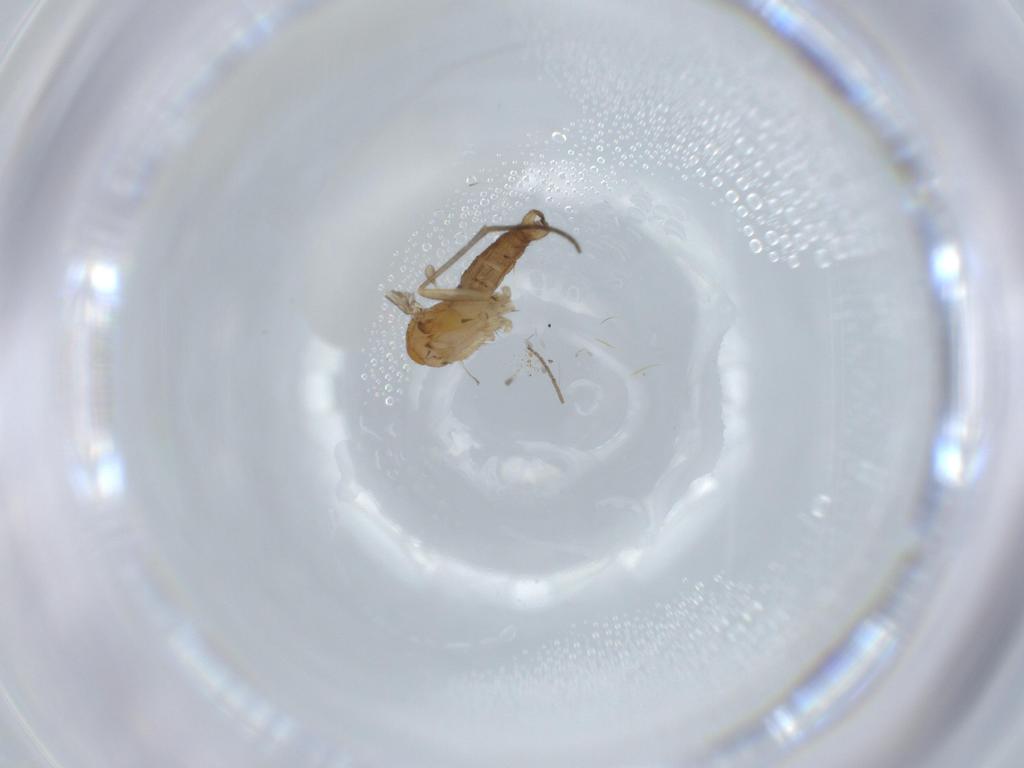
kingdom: Animalia
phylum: Arthropoda
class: Insecta
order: Diptera
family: Sciaridae
